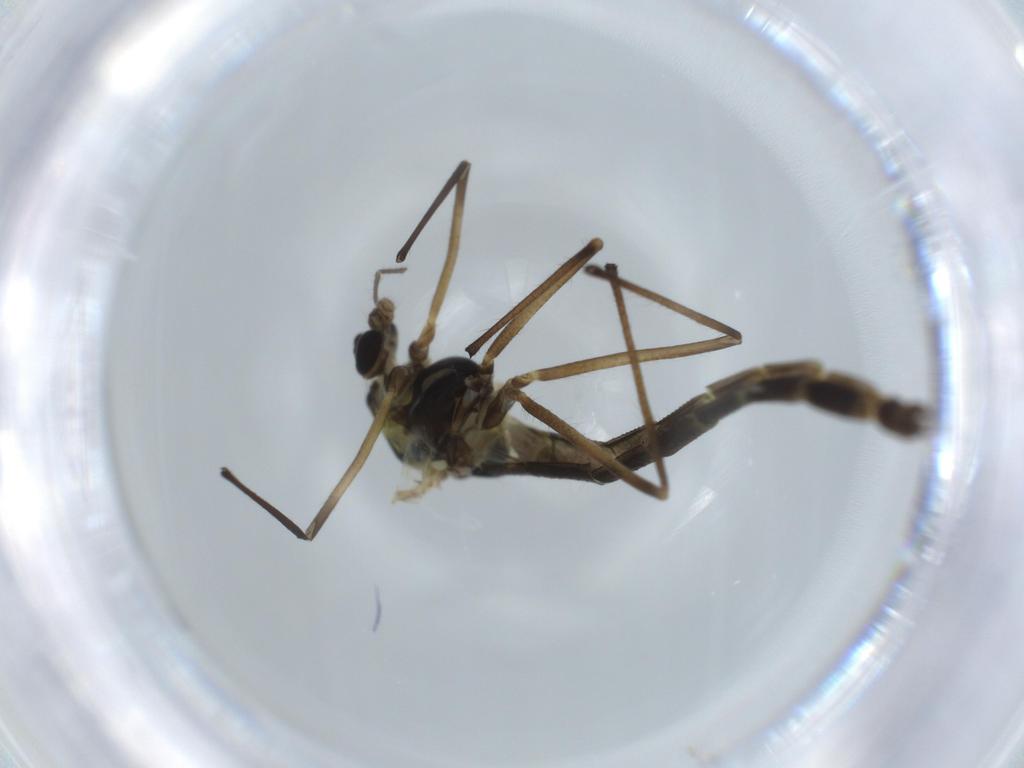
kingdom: Animalia
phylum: Arthropoda
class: Insecta
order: Diptera
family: Chironomidae
